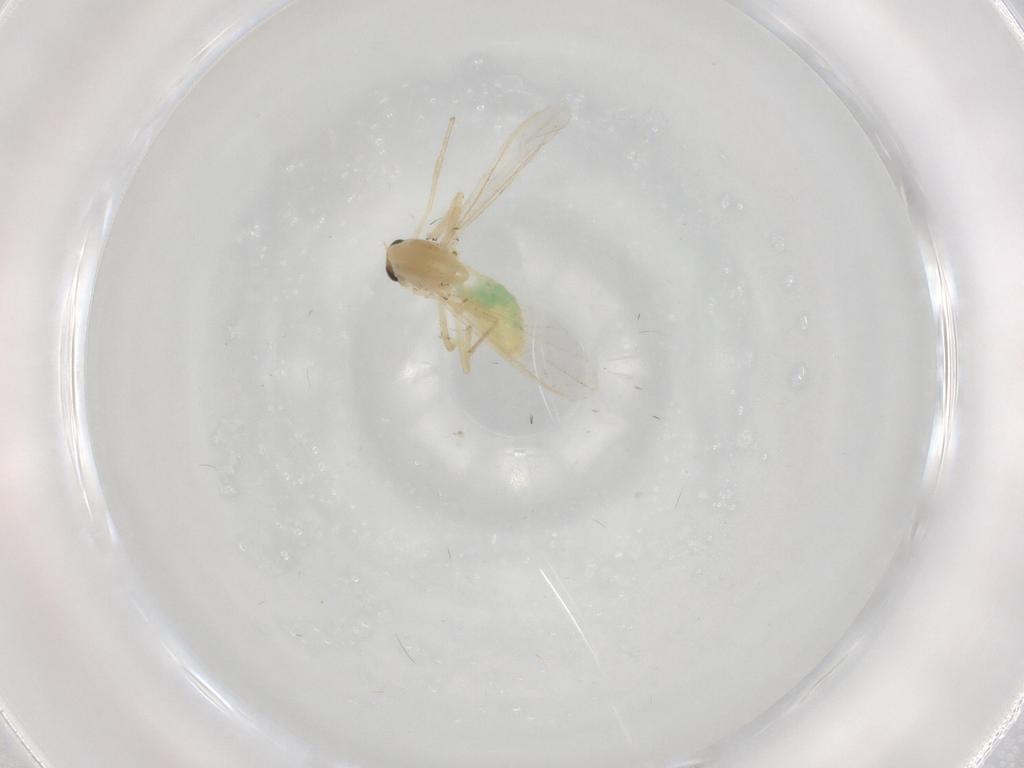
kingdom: Animalia
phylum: Arthropoda
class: Insecta
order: Diptera
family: Chironomidae
